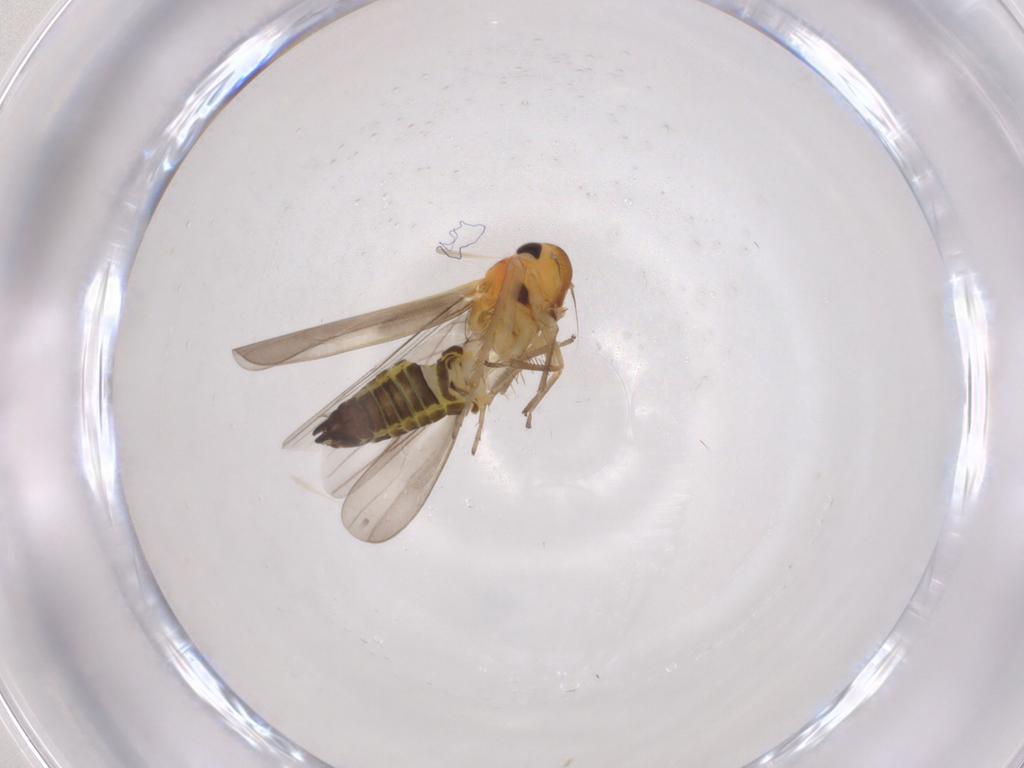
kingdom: Animalia
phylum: Arthropoda
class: Insecta
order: Hemiptera
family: Cicadellidae
